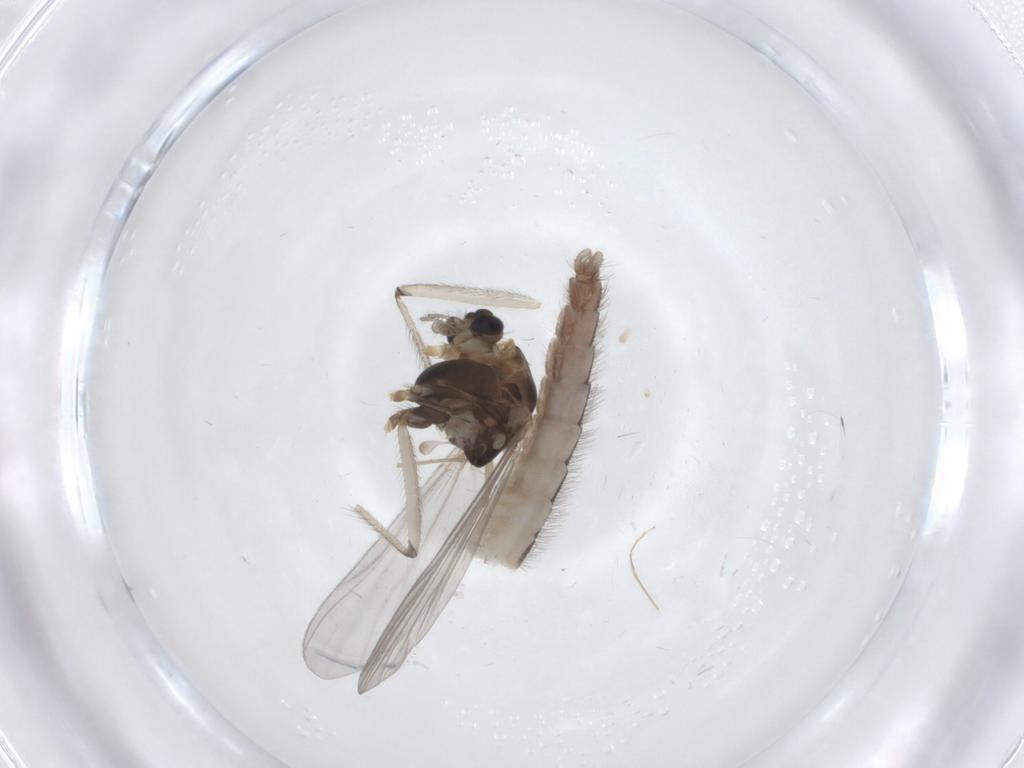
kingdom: Animalia
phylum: Arthropoda
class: Insecta
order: Diptera
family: Chironomidae
